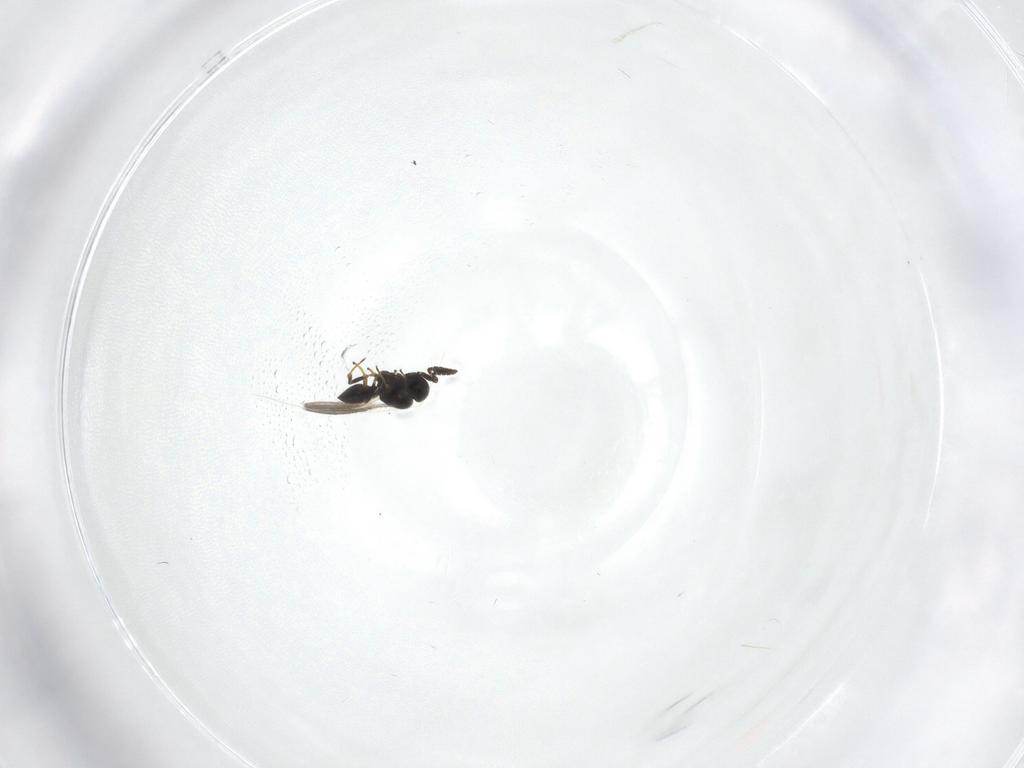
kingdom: Animalia
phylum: Arthropoda
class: Insecta
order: Hymenoptera
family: Scelionidae
